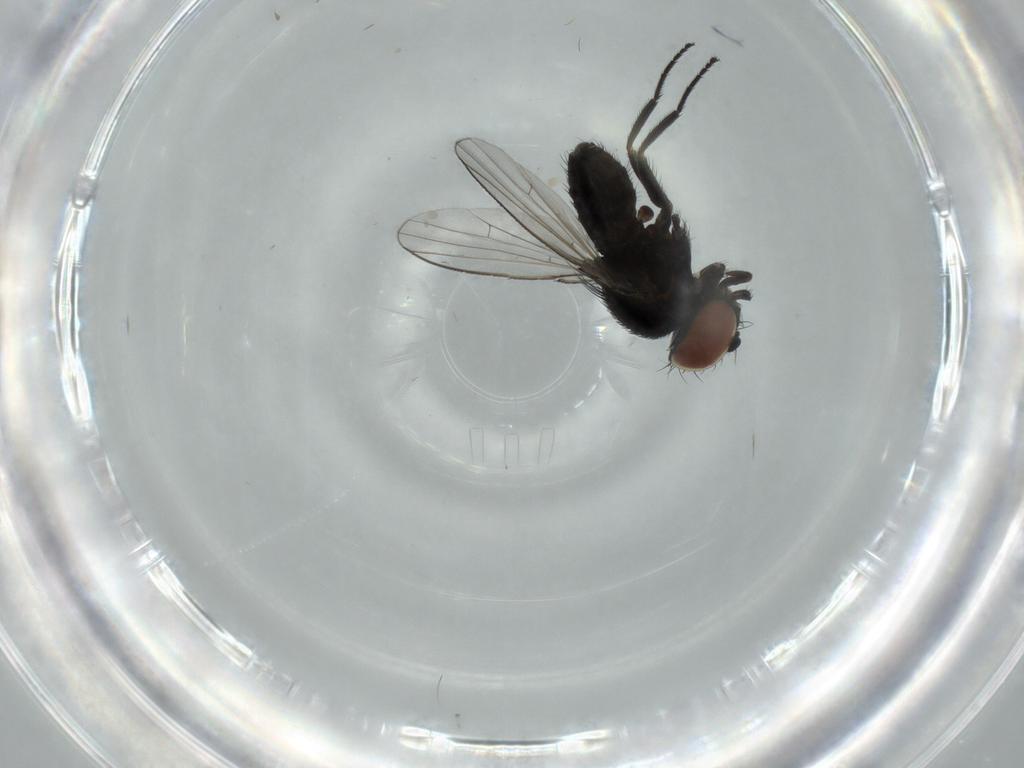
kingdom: Animalia
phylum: Arthropoda
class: Insecta
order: Diptera
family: Milichiidae
